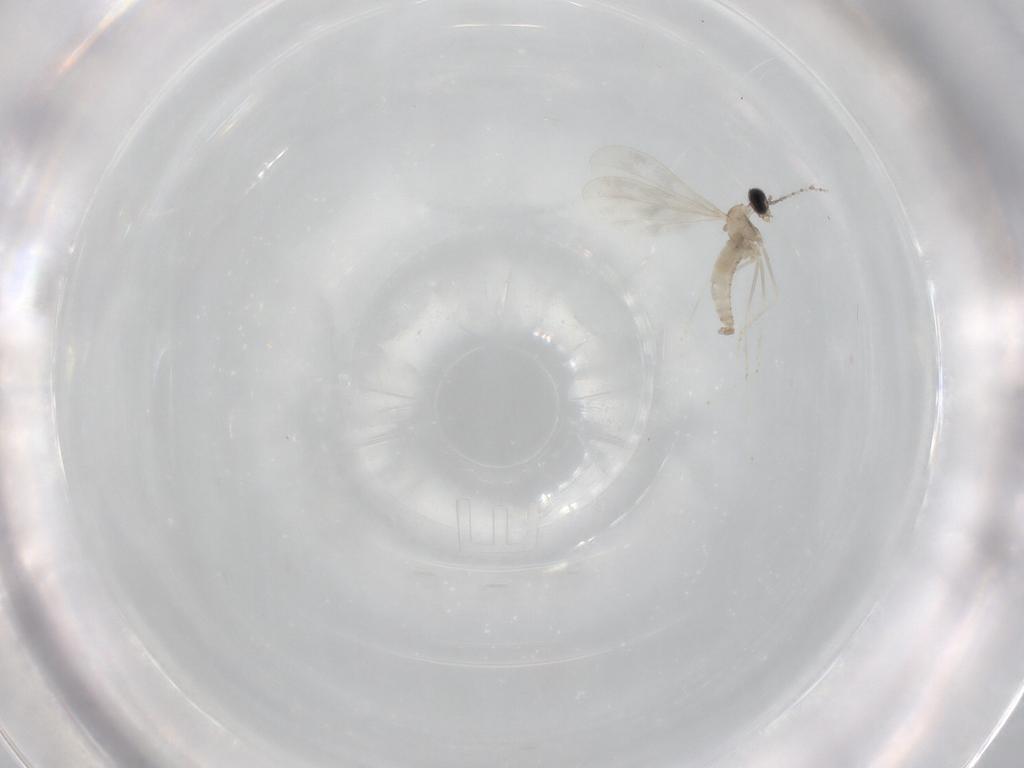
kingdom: Animalia
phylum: Arthropoda
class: Insecta
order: Diptera
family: Cecidomyiidae
